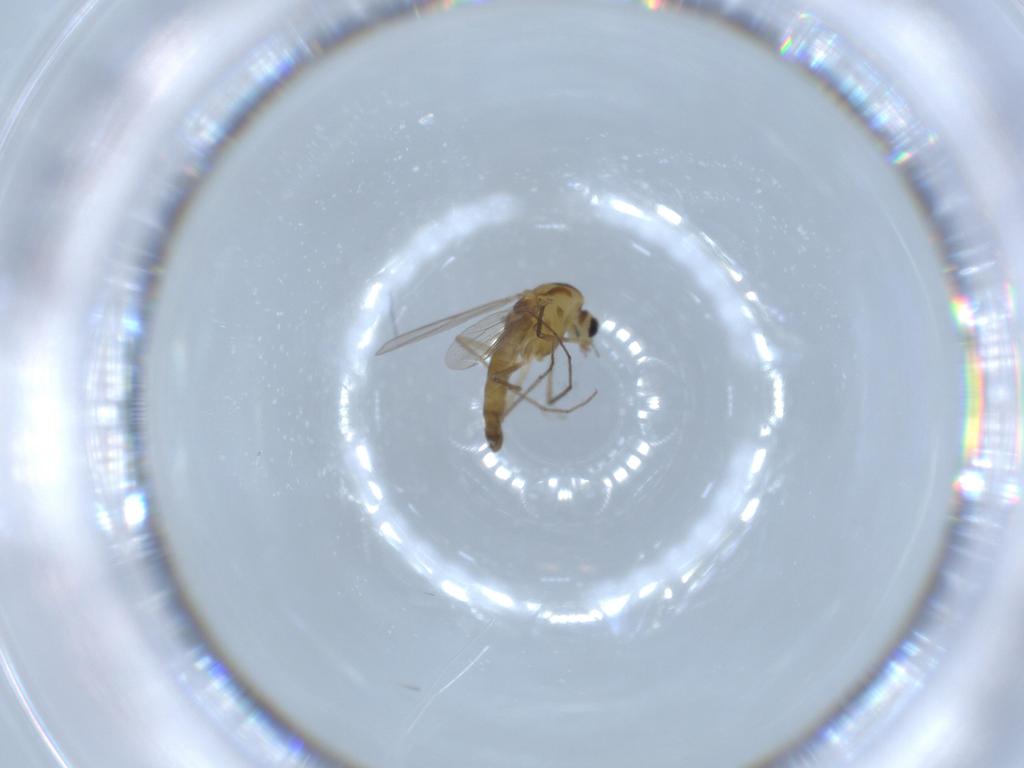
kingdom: Animalia
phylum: Arthropoda
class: Insecta
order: Diptera
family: Chironomidae
